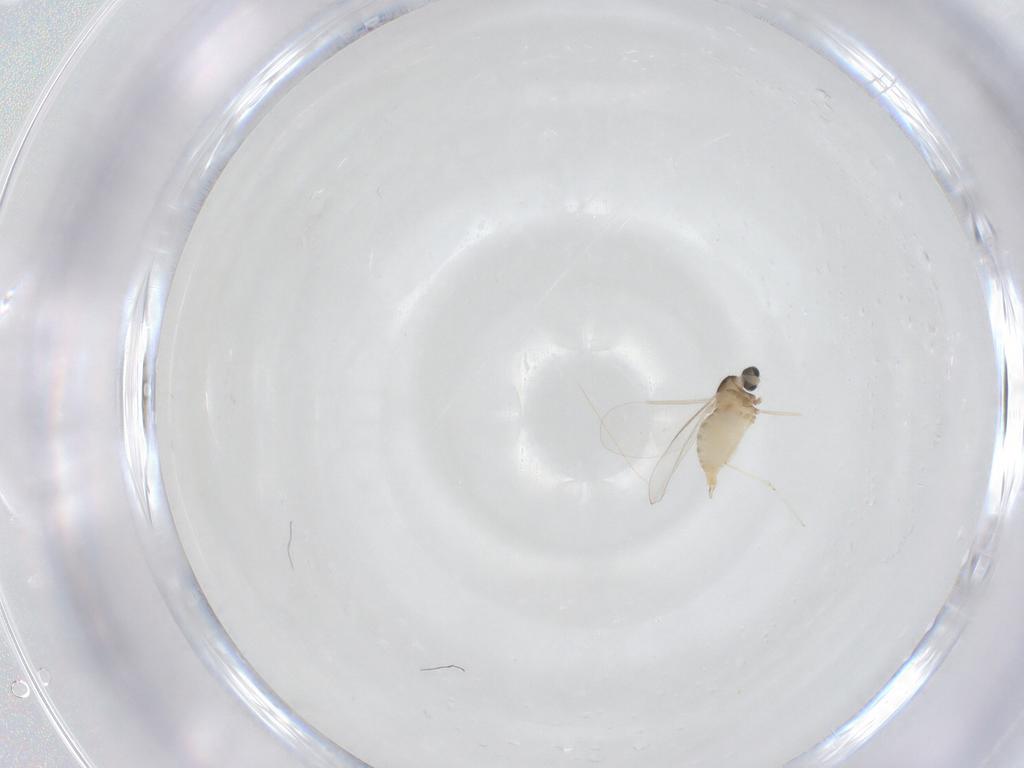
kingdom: Animalia
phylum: Arthropoda
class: Insecta
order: Diptera
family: Cecidomyiidae
